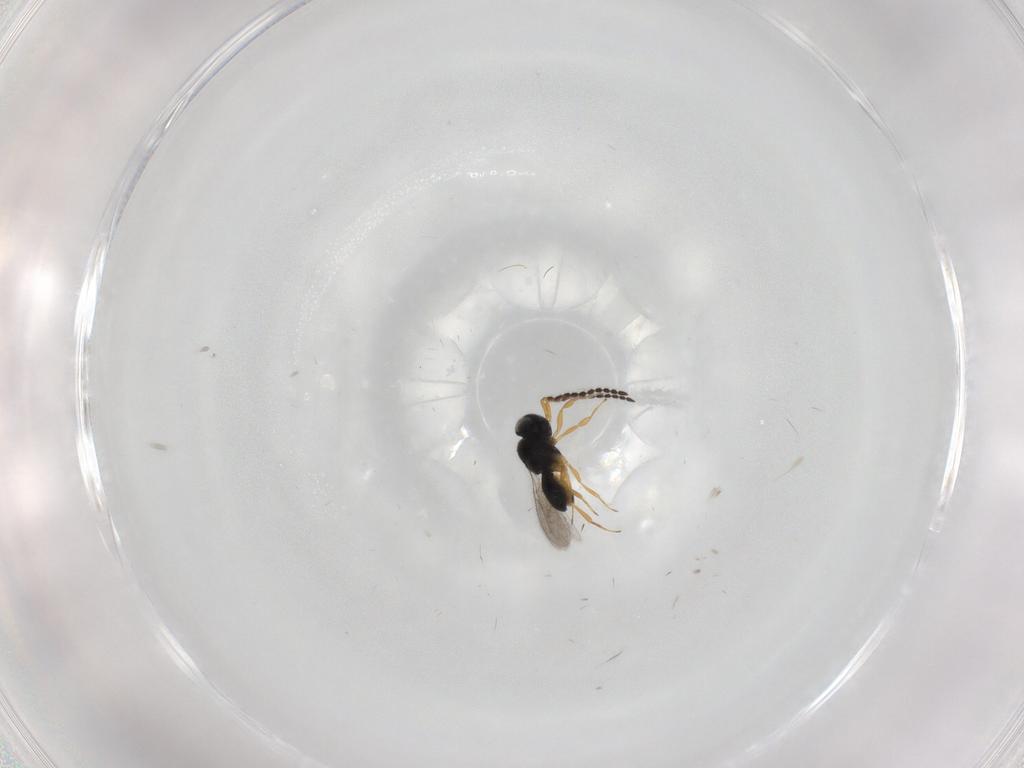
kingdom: Animalia
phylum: Arthropoda
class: Insecta
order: Hymenoptera
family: Scelionidae
